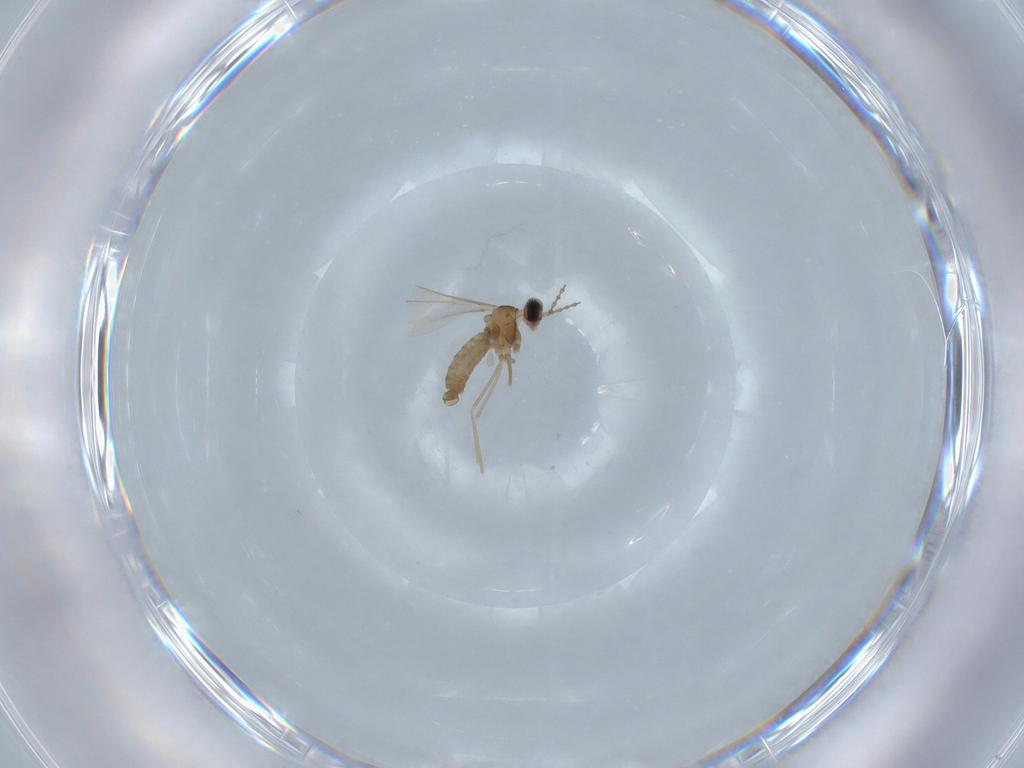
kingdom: Animalia
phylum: Arthropoda
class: Insecta
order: Diptera
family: Cecidomyiidae
